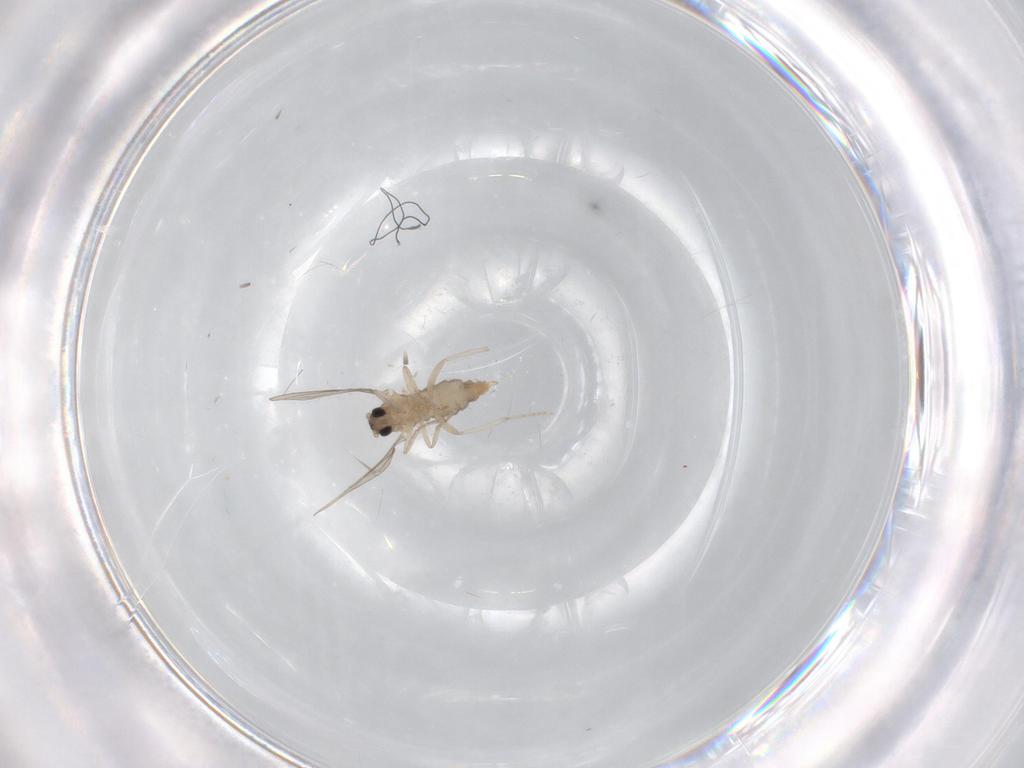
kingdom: Animalia
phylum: Arthropoda
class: Insecta
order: Diptera
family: Cecidomyiidae
